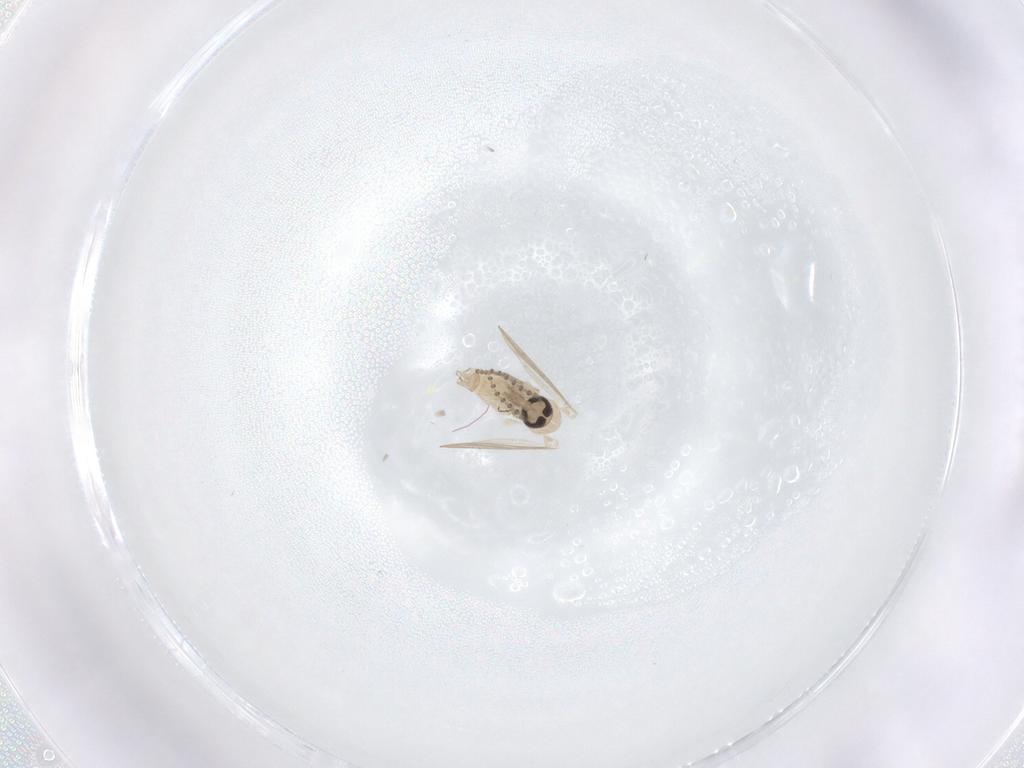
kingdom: Animalia
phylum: Arthropoda
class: Insecta
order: Diptera
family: Psychodidae
